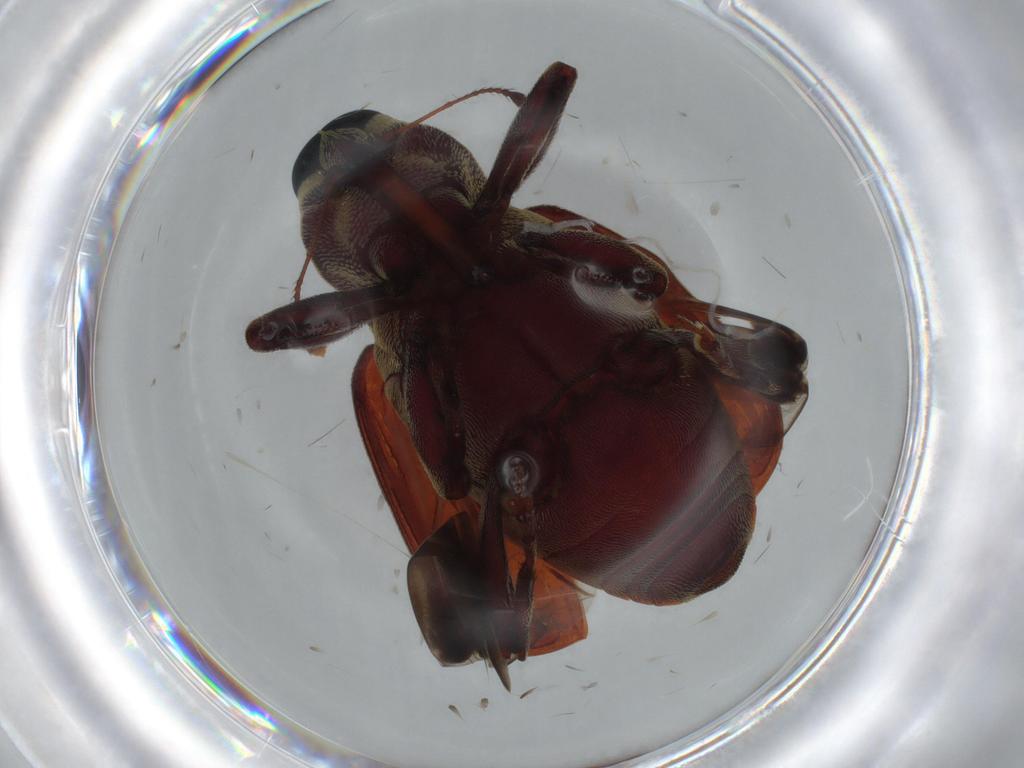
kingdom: Animalia
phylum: Arthropoda
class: Insecta
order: Coleoptera
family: Curculionidae
